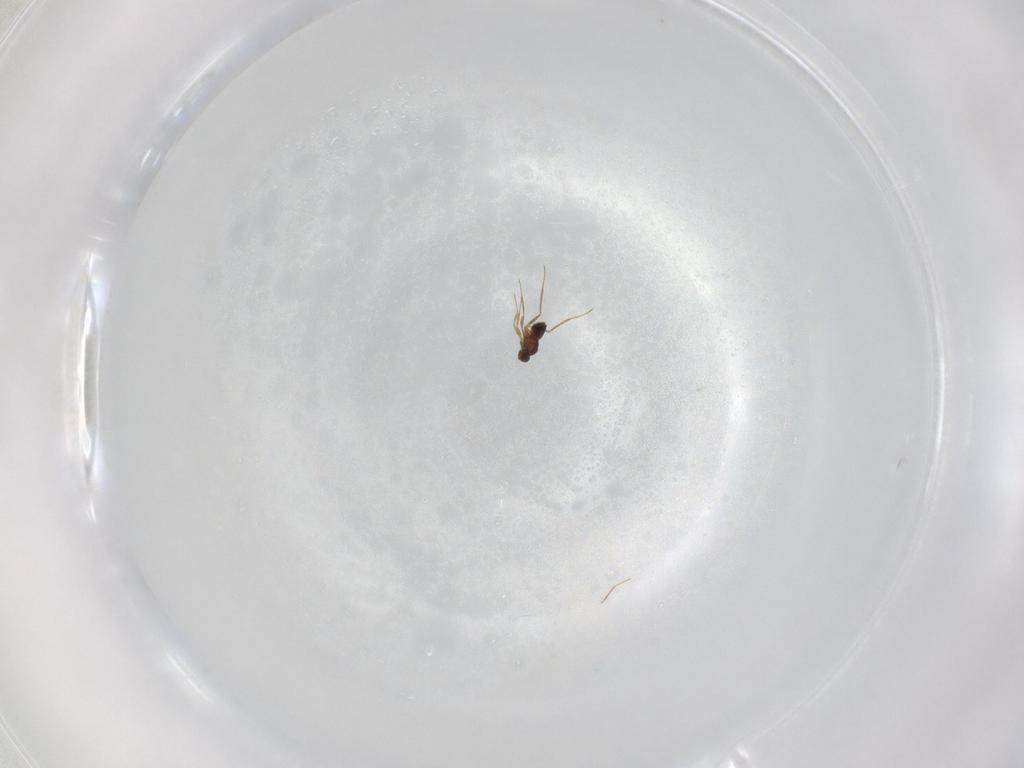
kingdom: Animalia
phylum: Arthropoda
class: Insecta
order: Diptera
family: Sphaeroceridae
